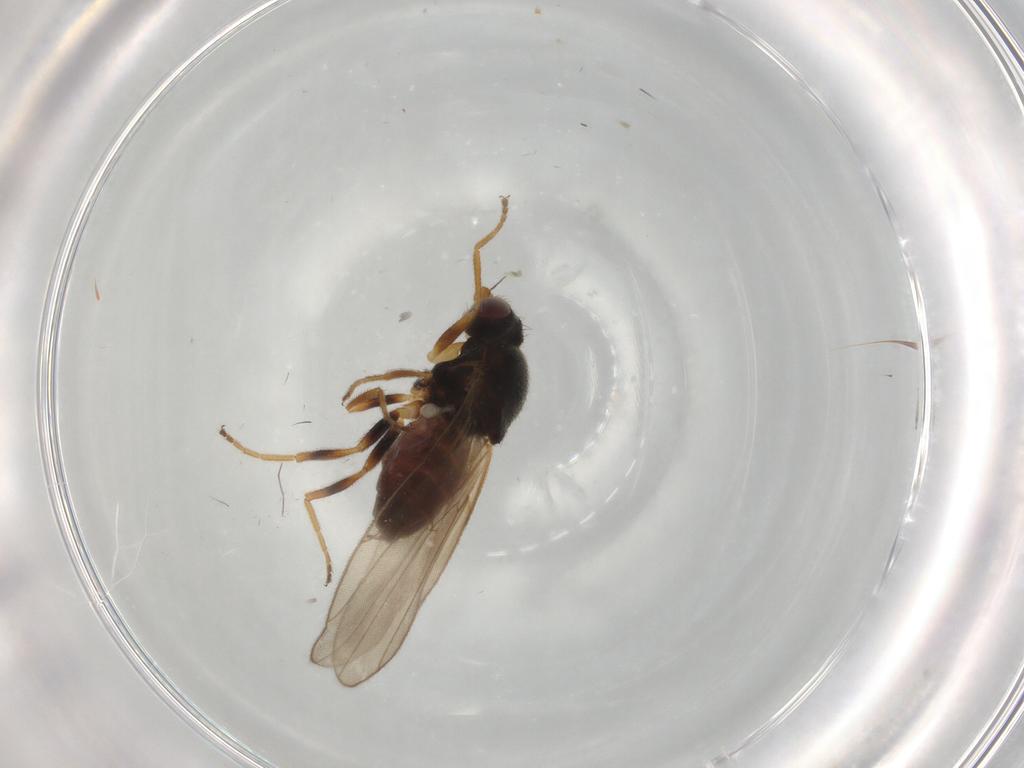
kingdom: Animalia
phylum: Arthropoda
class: Insecta
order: Diptera
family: Chloropidae
